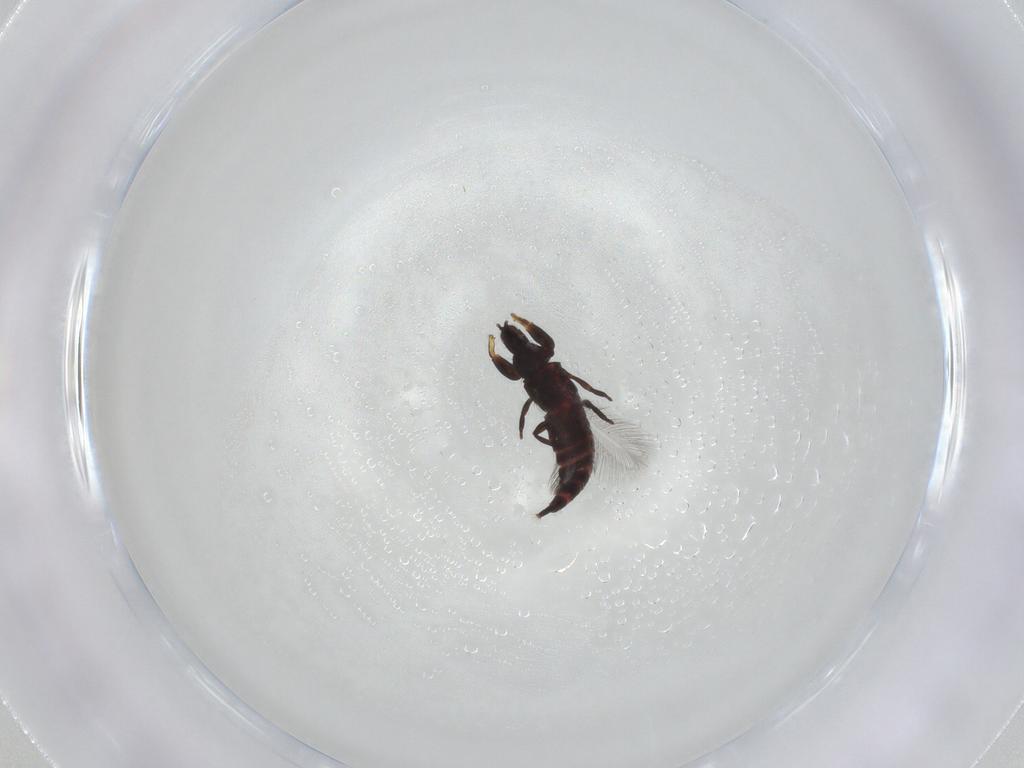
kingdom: Animalia
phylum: Arthropoda
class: Insecta
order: Thysanoptera
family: Phlaeothripidae
